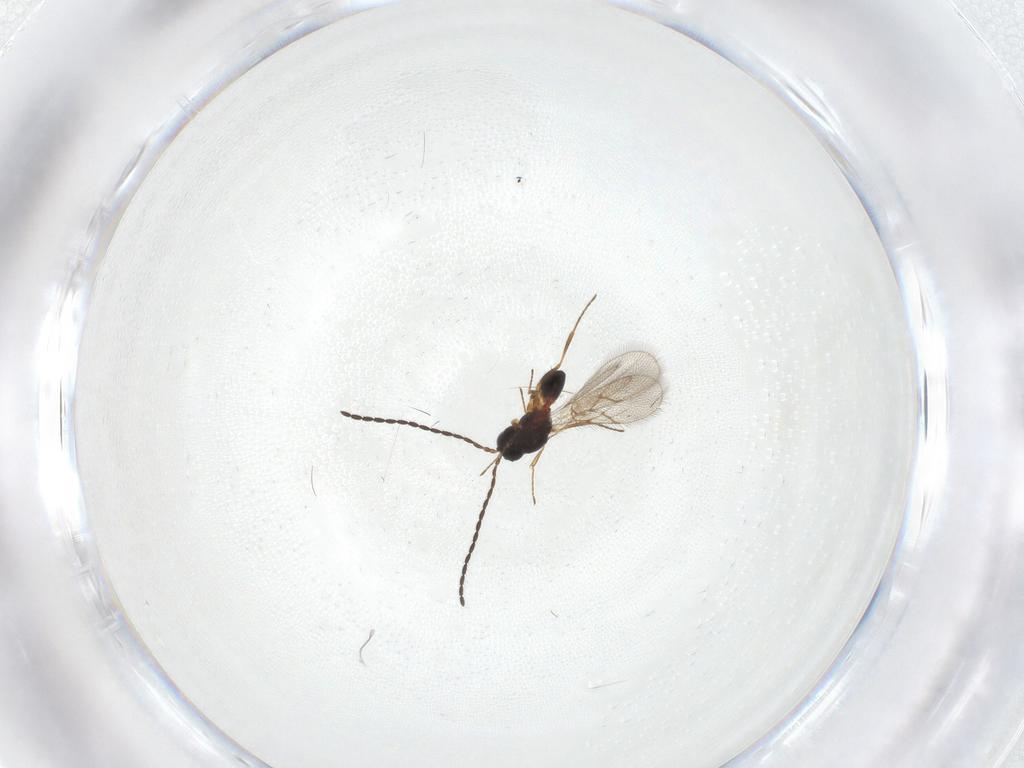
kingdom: Animalia
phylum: Arthropoda
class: Insecta
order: Hymenoptera
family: Figitidae
